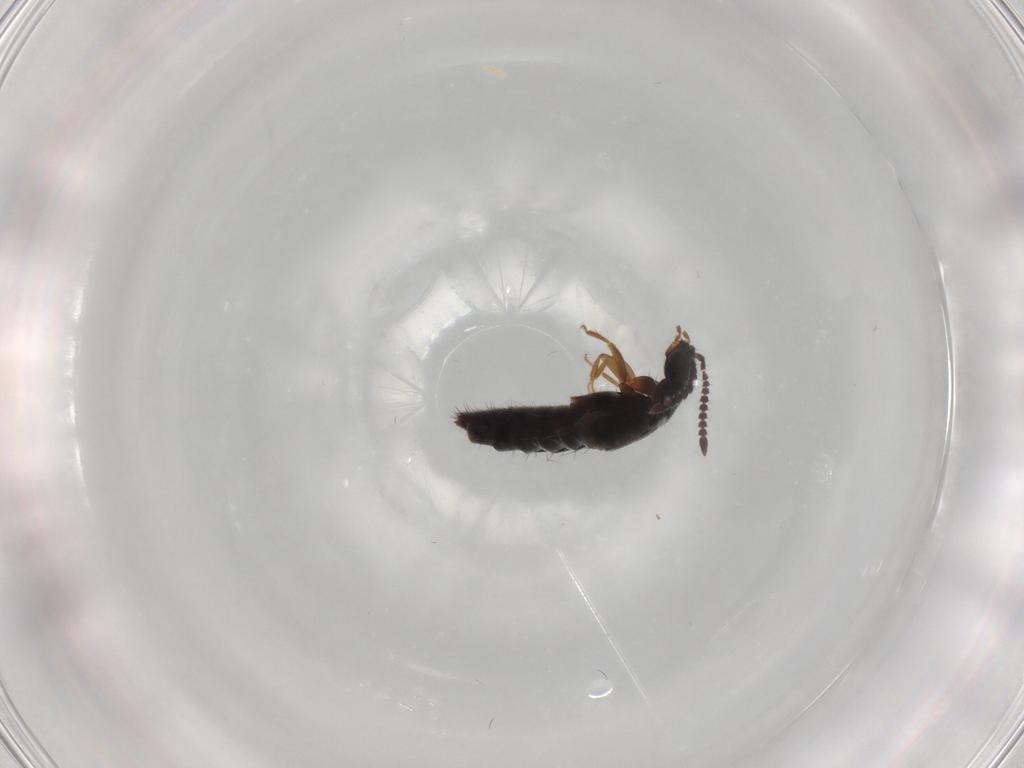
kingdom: Animalia
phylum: Arthropoda
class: Insecta
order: Coleoptera
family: Staphylinidae
